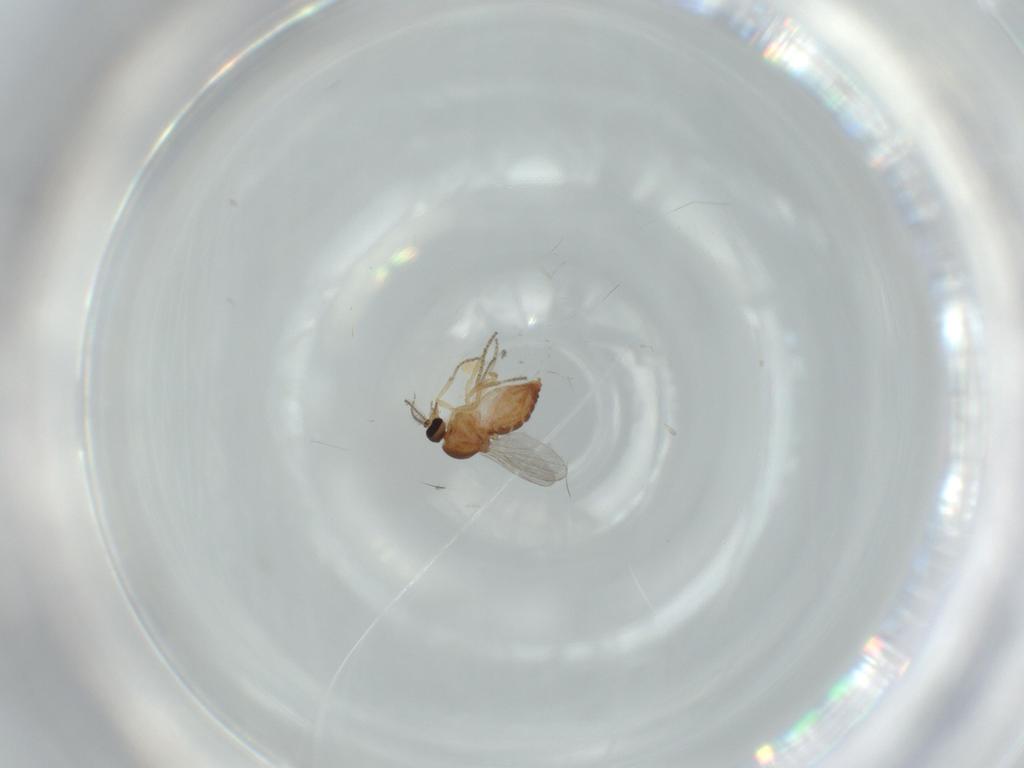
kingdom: Animalia
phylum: Arthropoda
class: Insecta
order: Diptera
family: Ceratopogonidae
